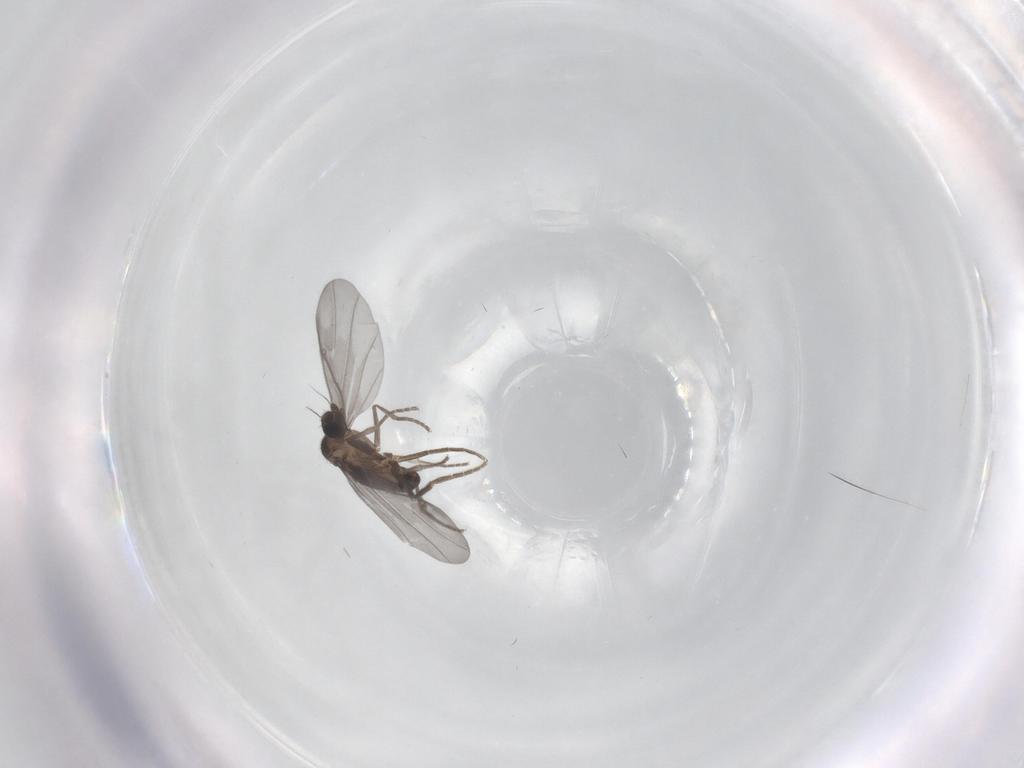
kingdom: Animalia
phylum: Arthropoda
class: Insecta
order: Diptera
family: Phoridae
